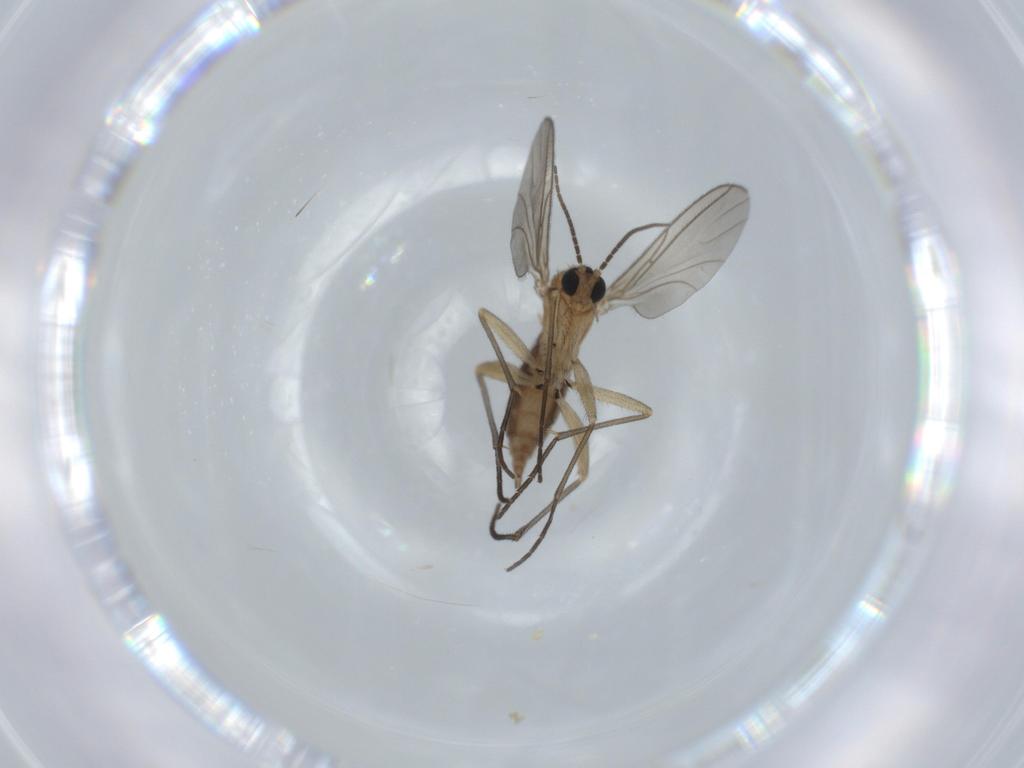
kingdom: Animalia
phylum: Arthropoda
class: Insecta
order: Diptera
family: Sciaridae
